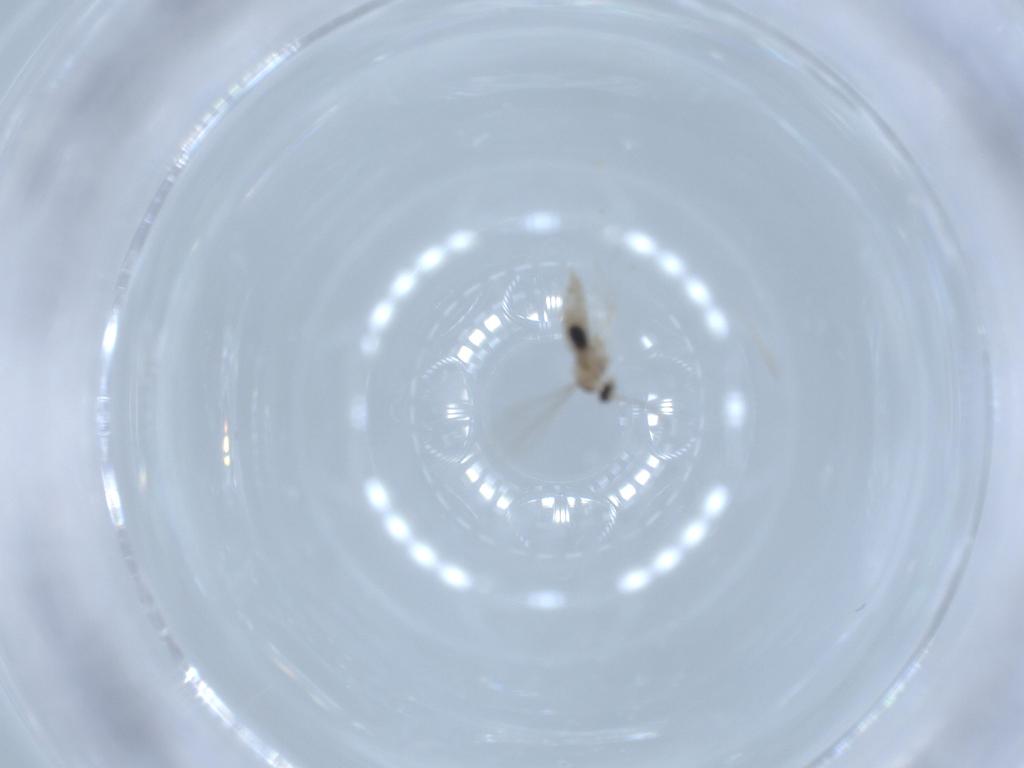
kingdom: Animalia
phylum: Arthropoda
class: Insecta
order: Diptera
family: Cecidomyiidae
